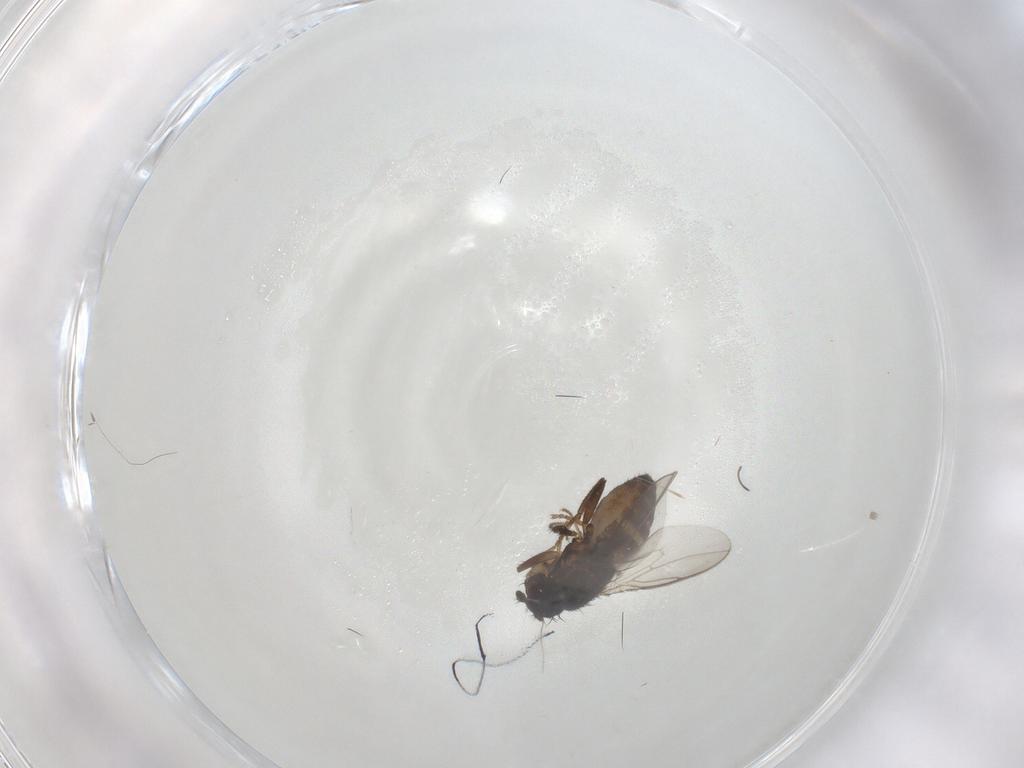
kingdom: Animalia
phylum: Arthropoda
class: Insecta
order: Diptera
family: Sphaeroceridae
